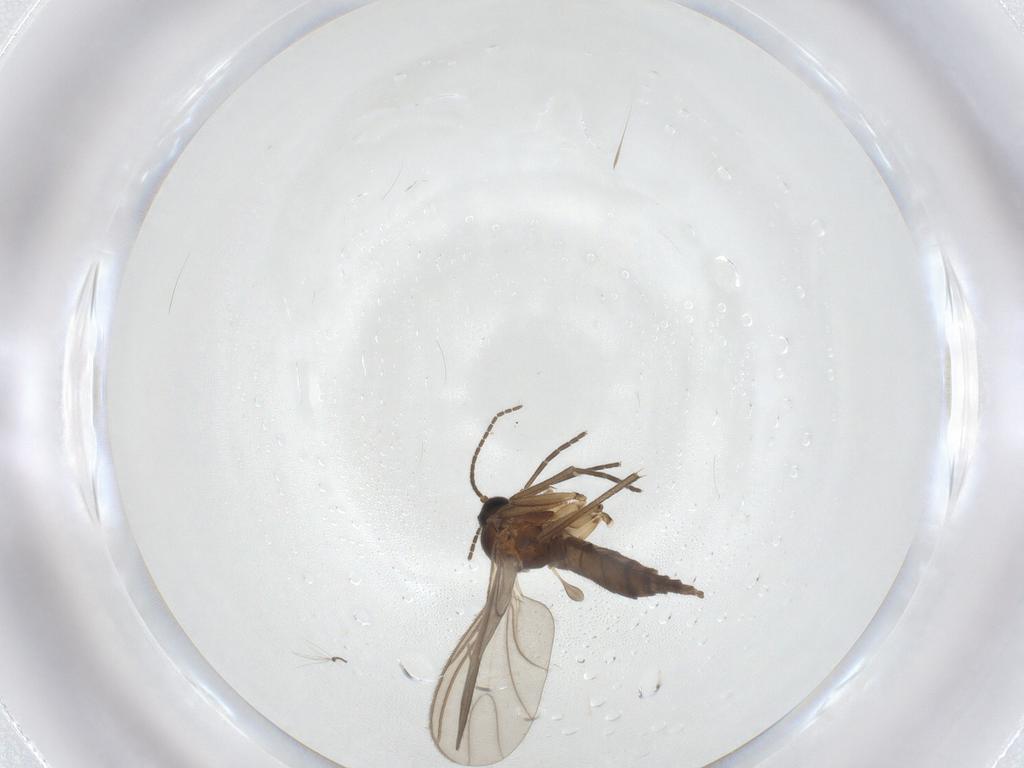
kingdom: Animalia
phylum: Arthropoda
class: Insecta
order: Diptera
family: Sciaridae
